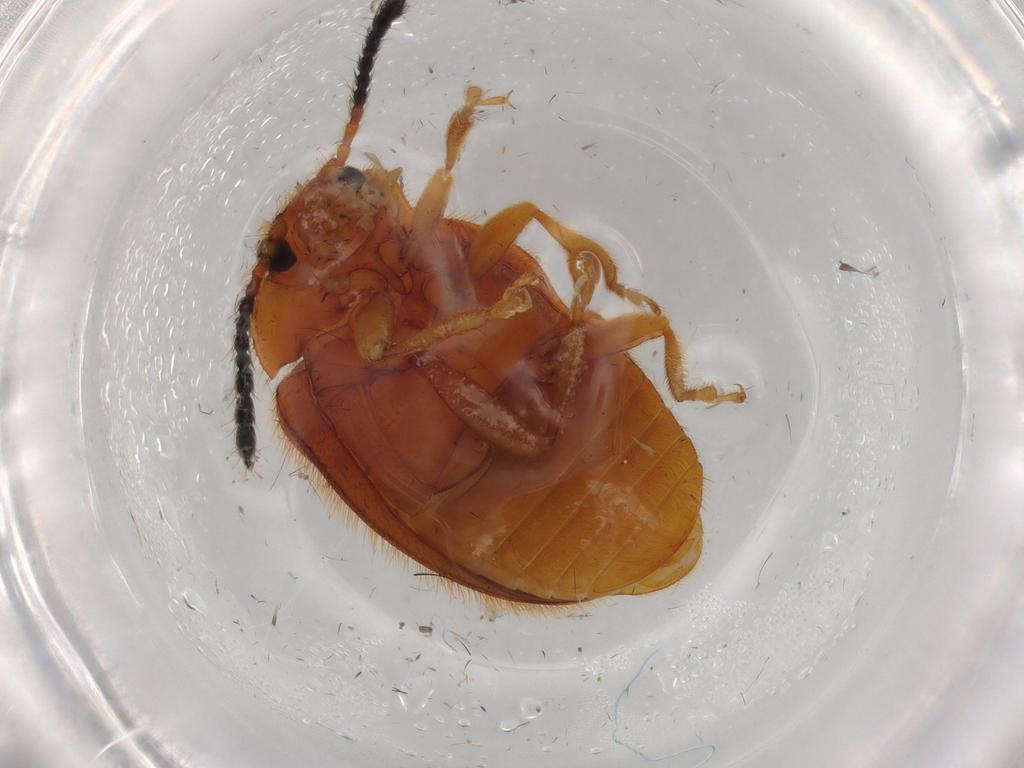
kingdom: Animalia
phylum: Arthropoda
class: Insecta
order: Coleoptera
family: Endomychidae
